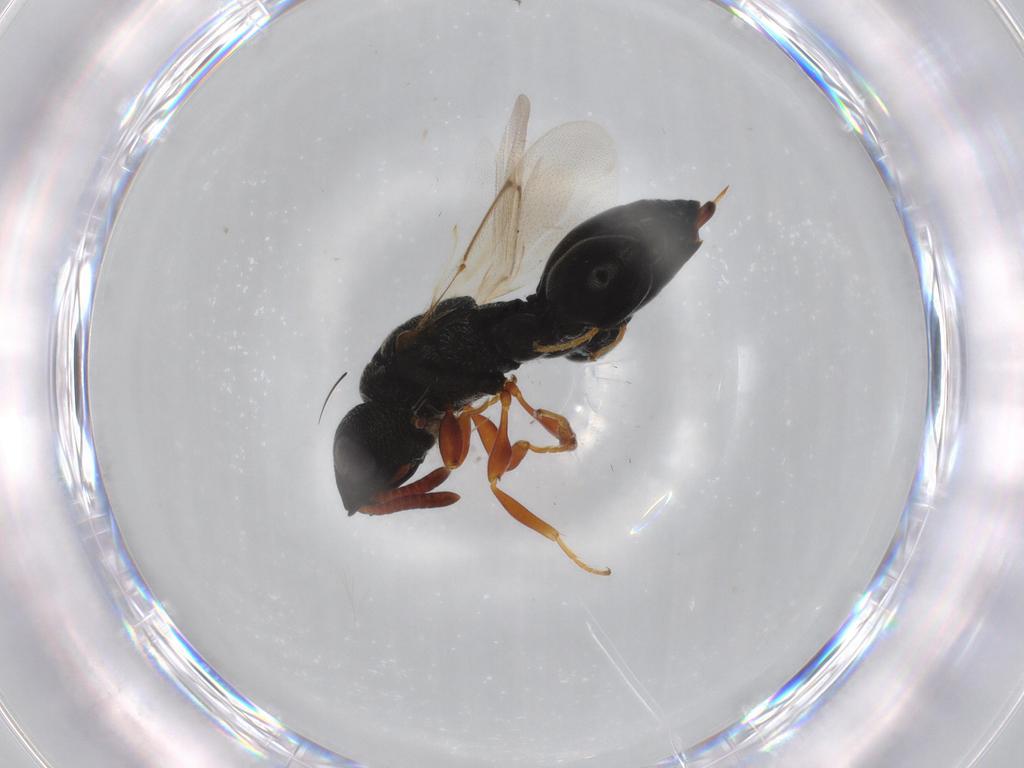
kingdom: Animalia
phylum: Arthropoda
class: Insecta
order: Hymenoptera
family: Chalcididae
